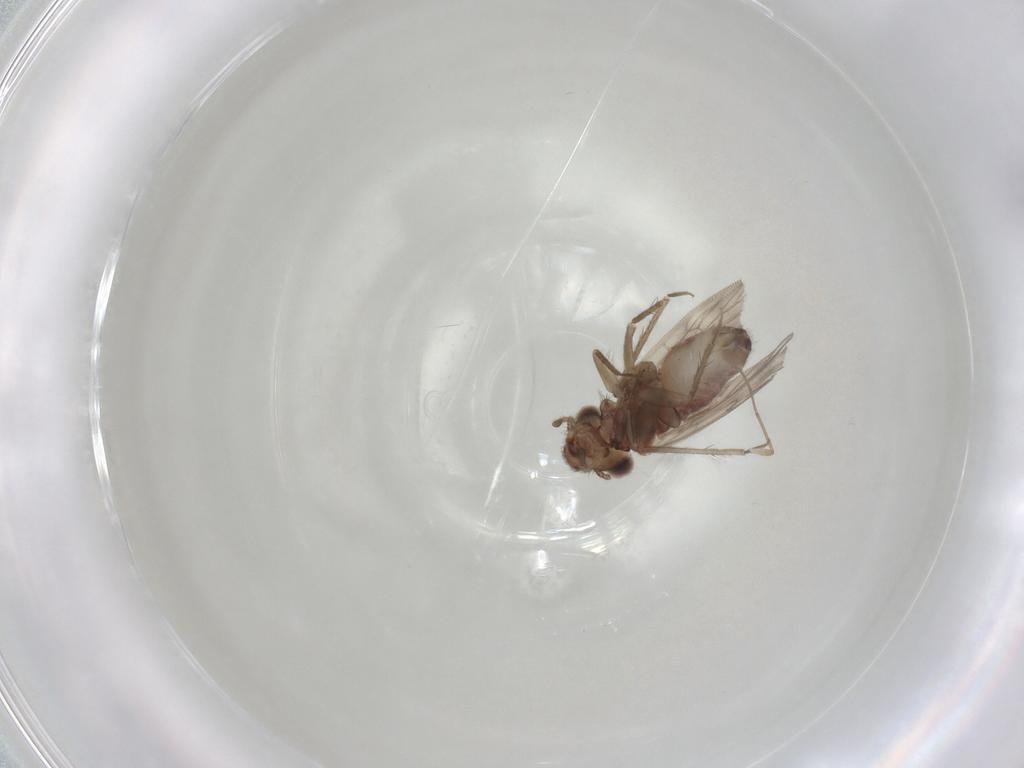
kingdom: Animalia
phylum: Arthropoda
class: Insecta
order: Psocodea
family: Lepidopsocidae
